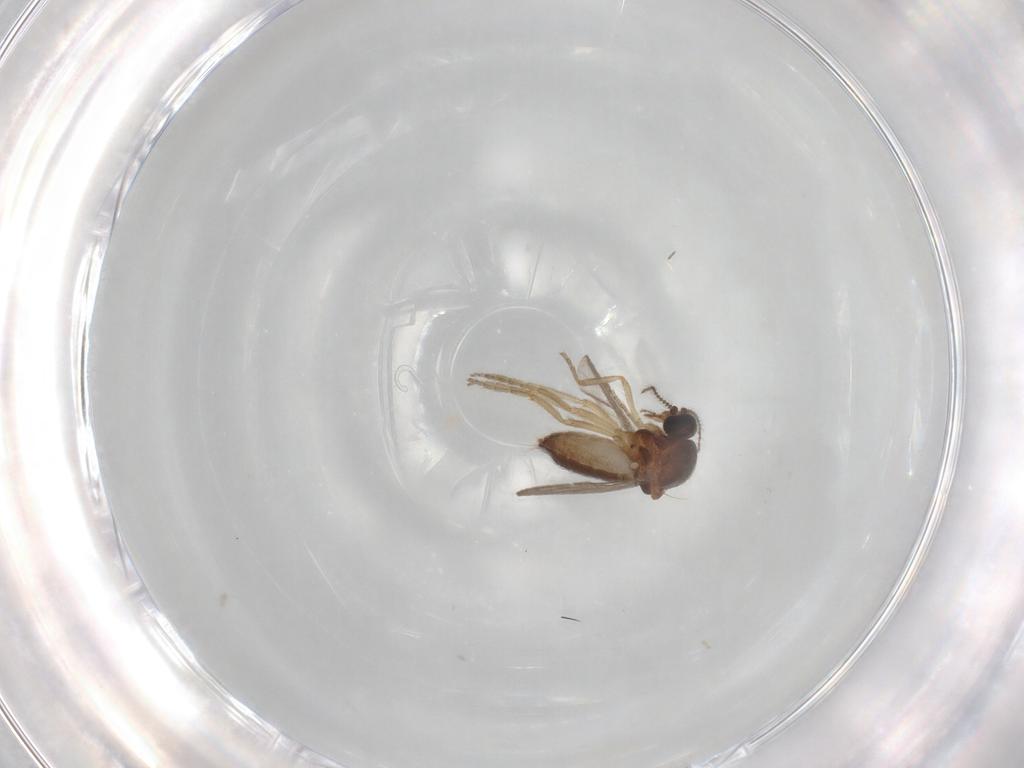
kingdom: Animalia
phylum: Arthropoda
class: Insecta
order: Diptera
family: Ceratopogonidae
